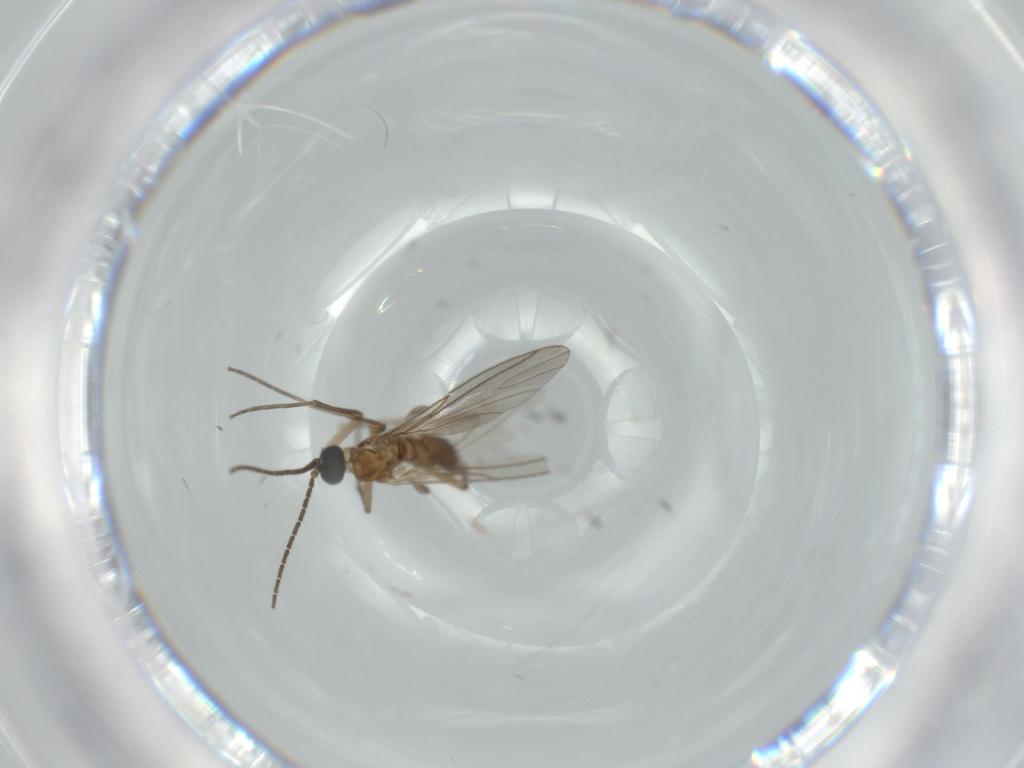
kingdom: Animalia
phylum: Arthropoda
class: Insecta
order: Diptera
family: Sciaridae
